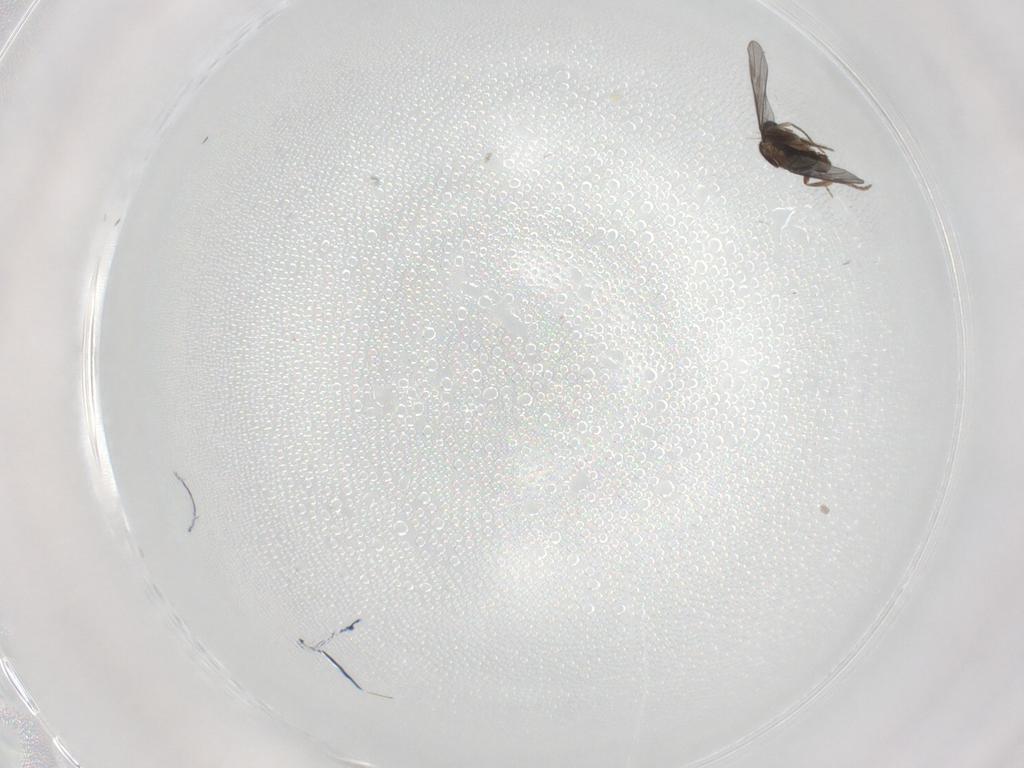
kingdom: Animalia
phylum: Arthropoda
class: Insecta
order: Diptera
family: Chironomidae
